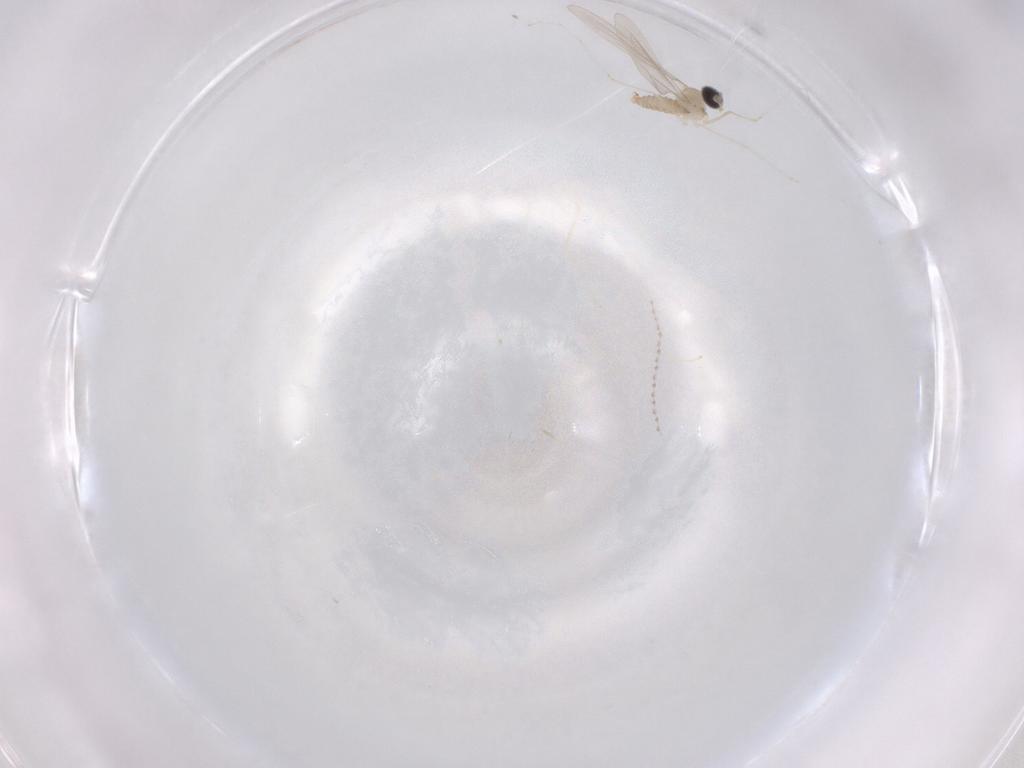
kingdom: Animalia
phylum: Arthropoda
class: Insecta
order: Diptera
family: Cecidomyiidae
